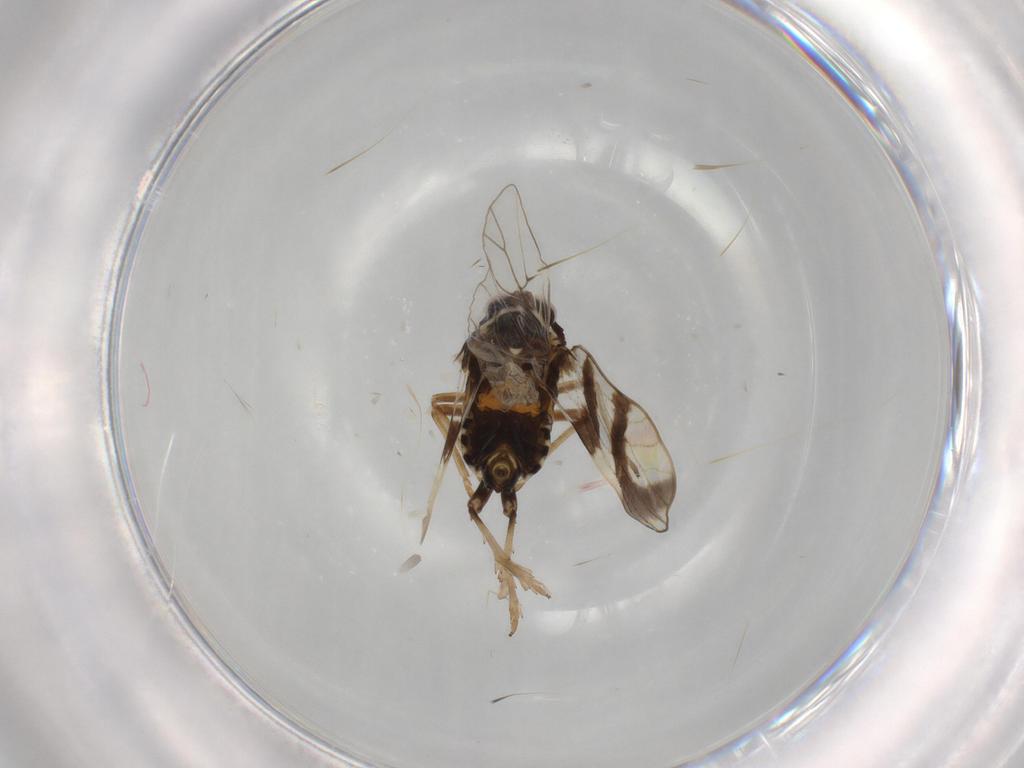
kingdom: Animalia
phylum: Arthropoda
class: Insecta
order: Hemiptera
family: Delphacidae
